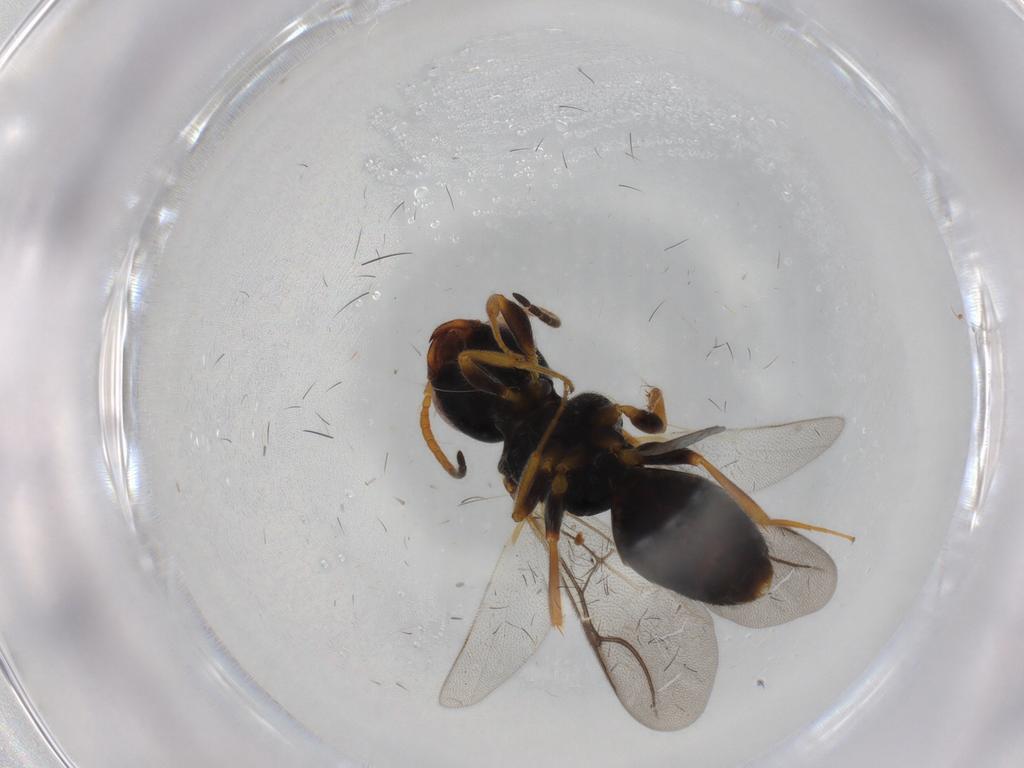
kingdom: Animalia
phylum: Arthropoda
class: Insecta
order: Hymenoptera
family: Bethylidae
